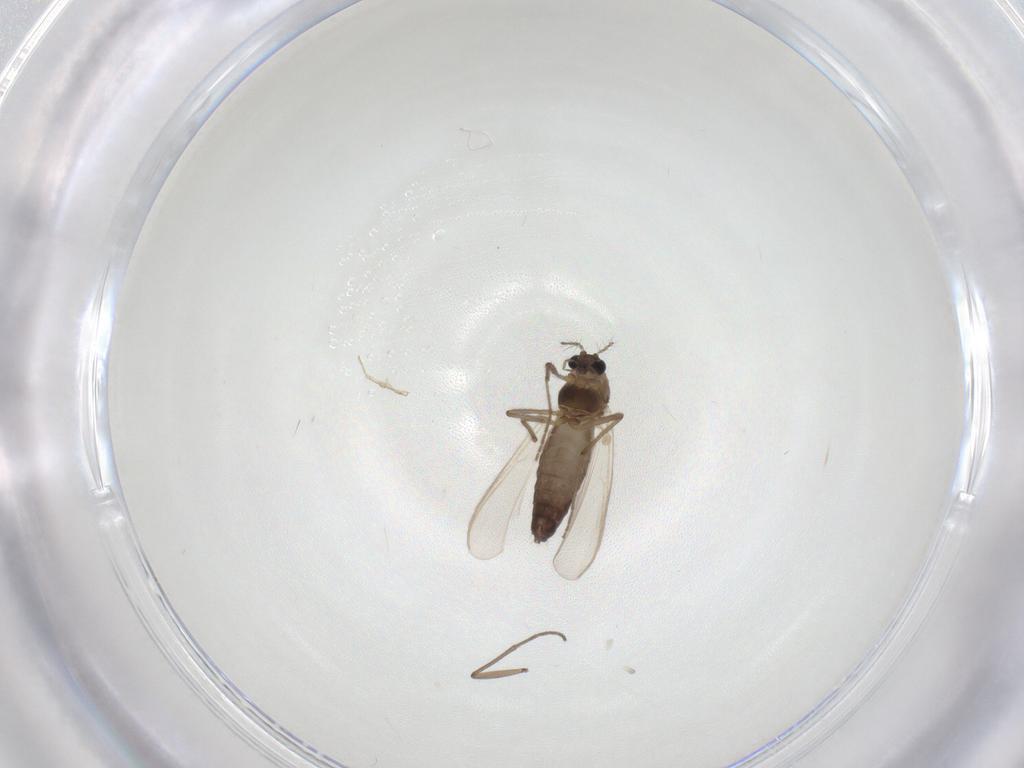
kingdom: Animalia
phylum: Arthropoda
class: Insecta
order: Diptera
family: Chironomidae
